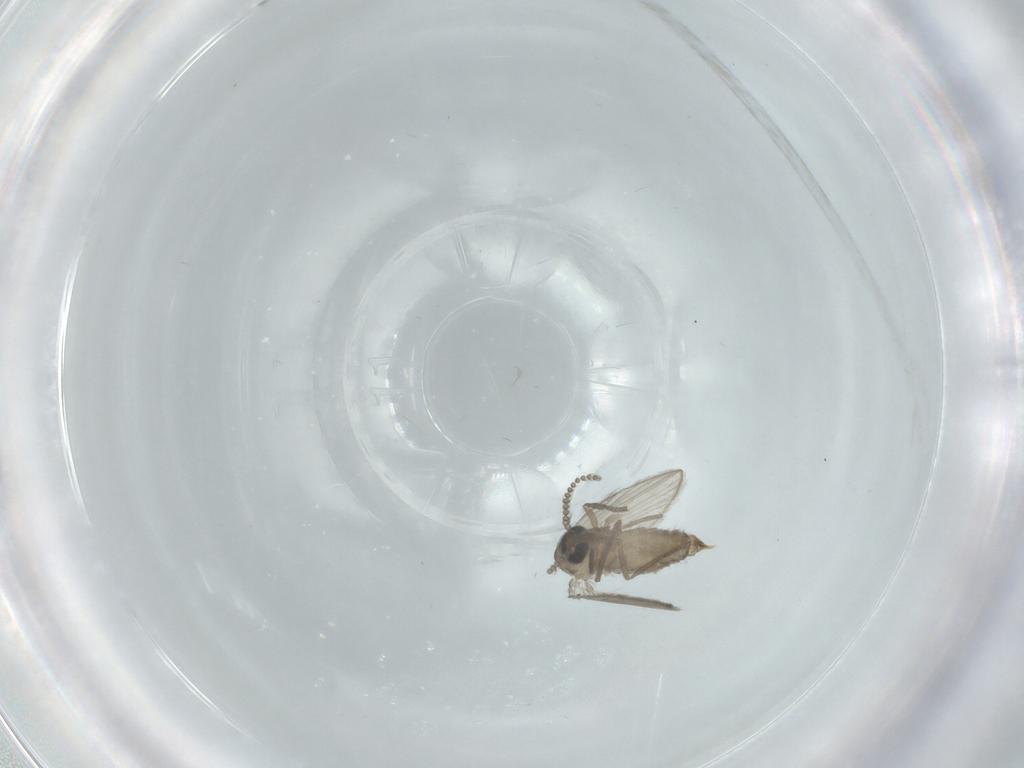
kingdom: Animalia
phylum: Arthropoda
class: Insecta
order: Diptera
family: Psychodidae
